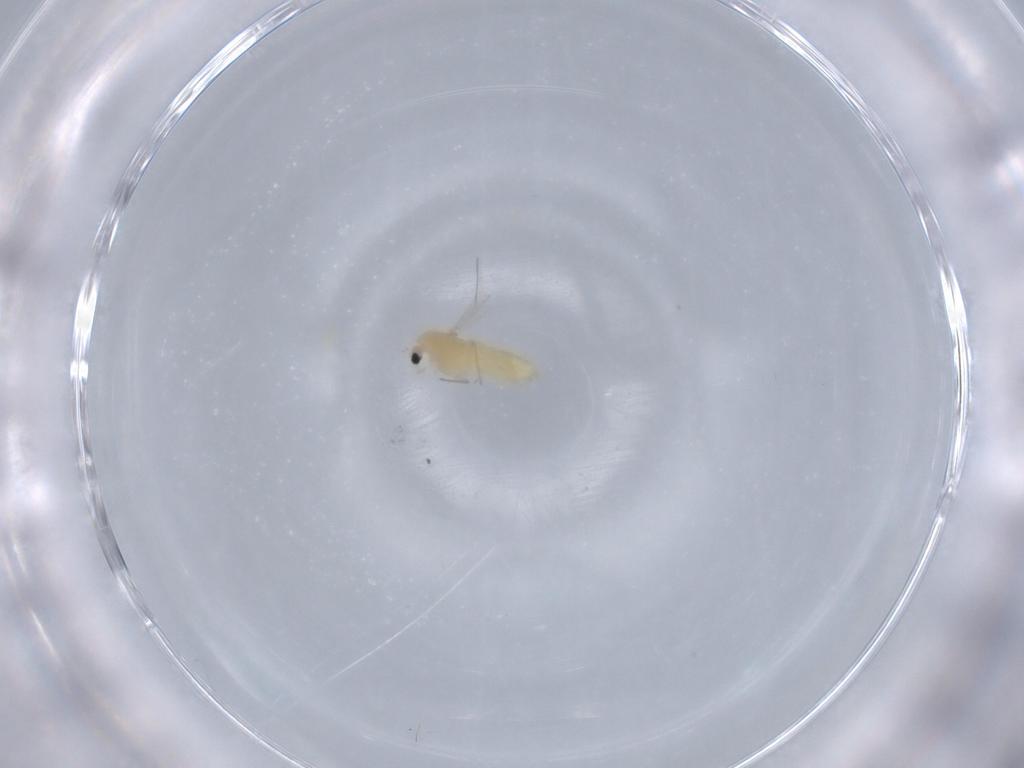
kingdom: Animalia
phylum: Arthropoda
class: Insecta
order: Diptera
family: Chironomidae
